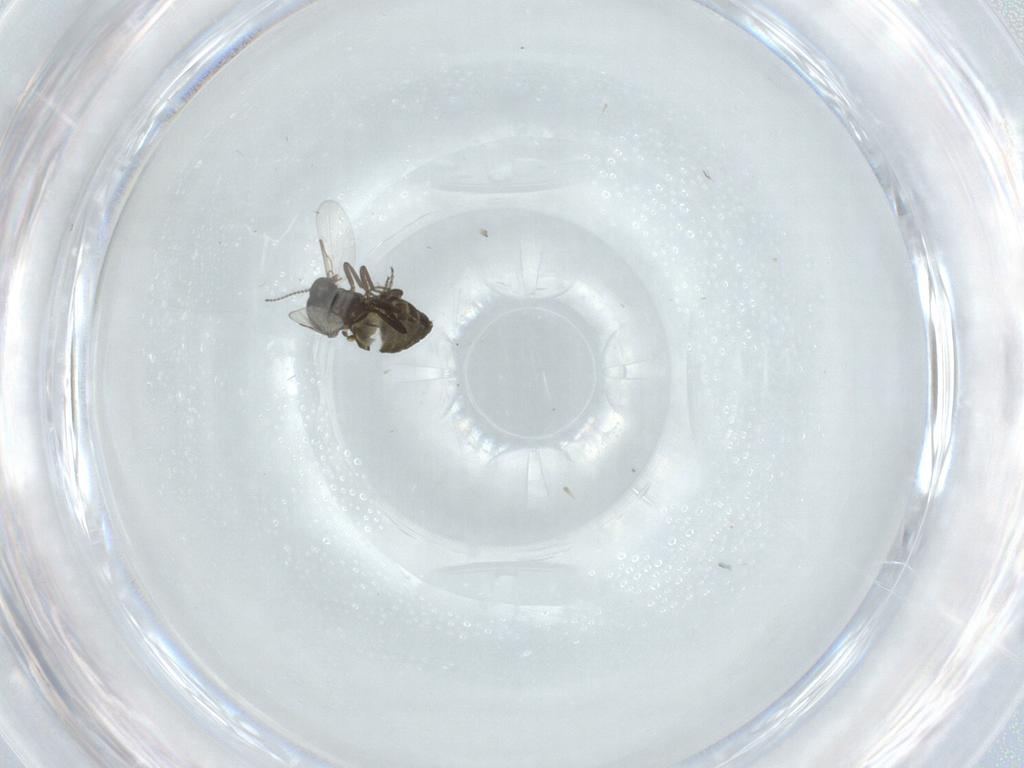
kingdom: Animalia
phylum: Arthropoda
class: Insecta
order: Diptera
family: Ceratopogonidae
